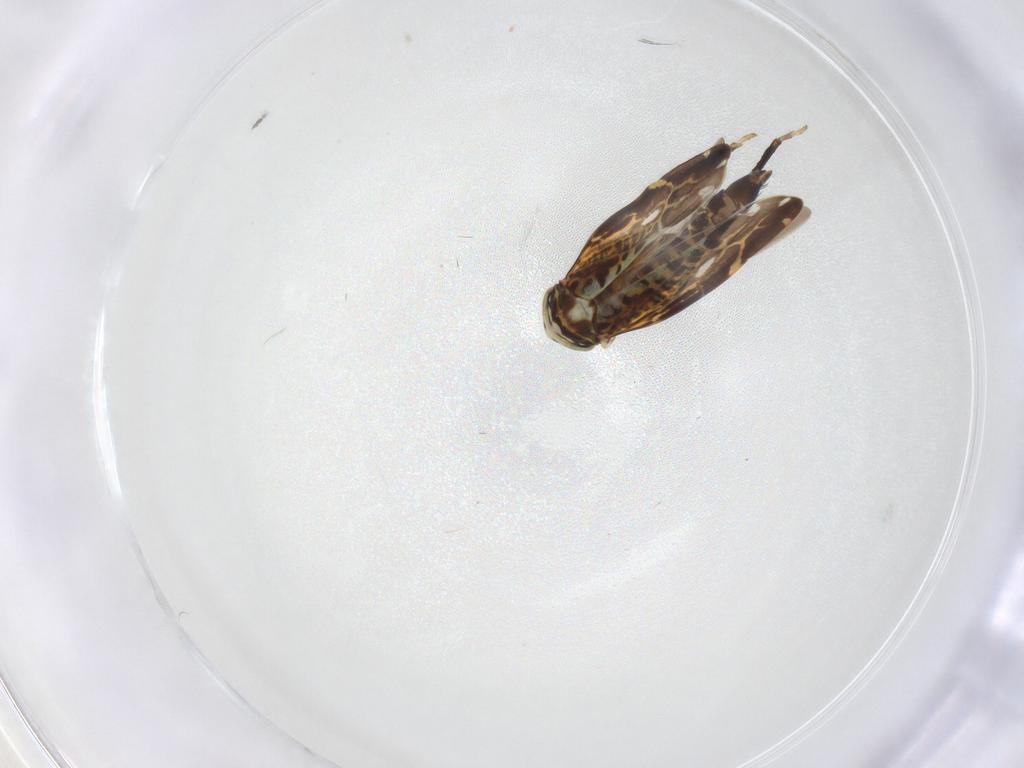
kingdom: Animalia
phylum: Arthropoda
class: Insecta
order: Hemiptera
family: Cicadellidae
